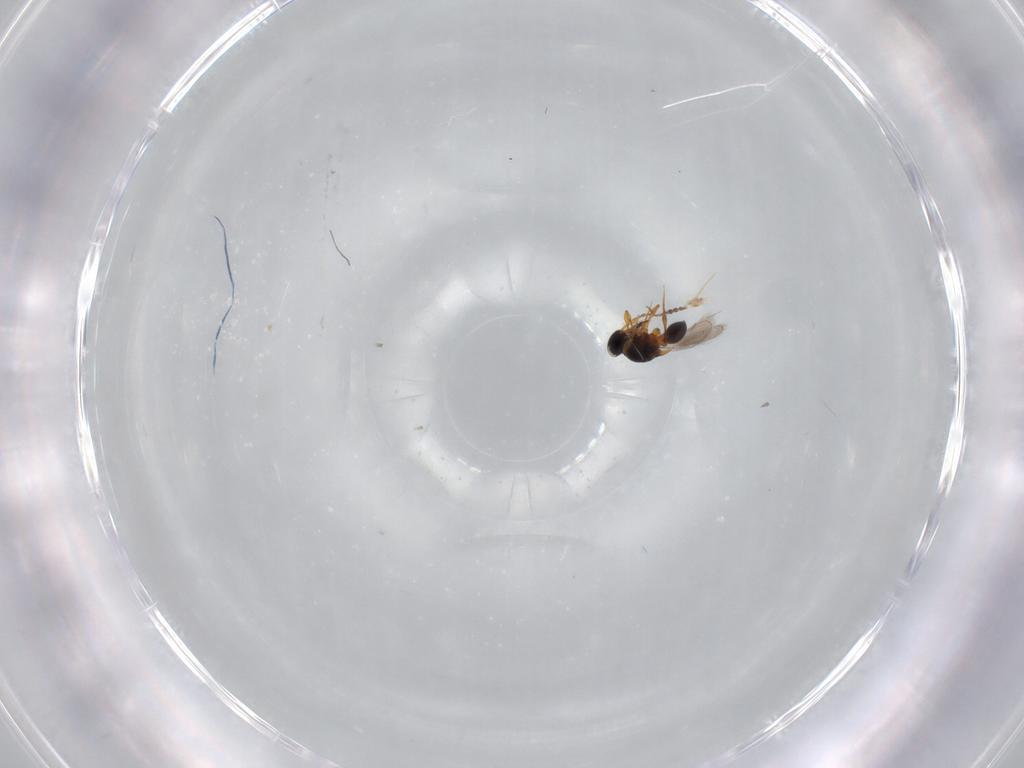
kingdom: Animalia
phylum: Arthropoda
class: Insecta
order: Hymenoptera
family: Platygastridae
